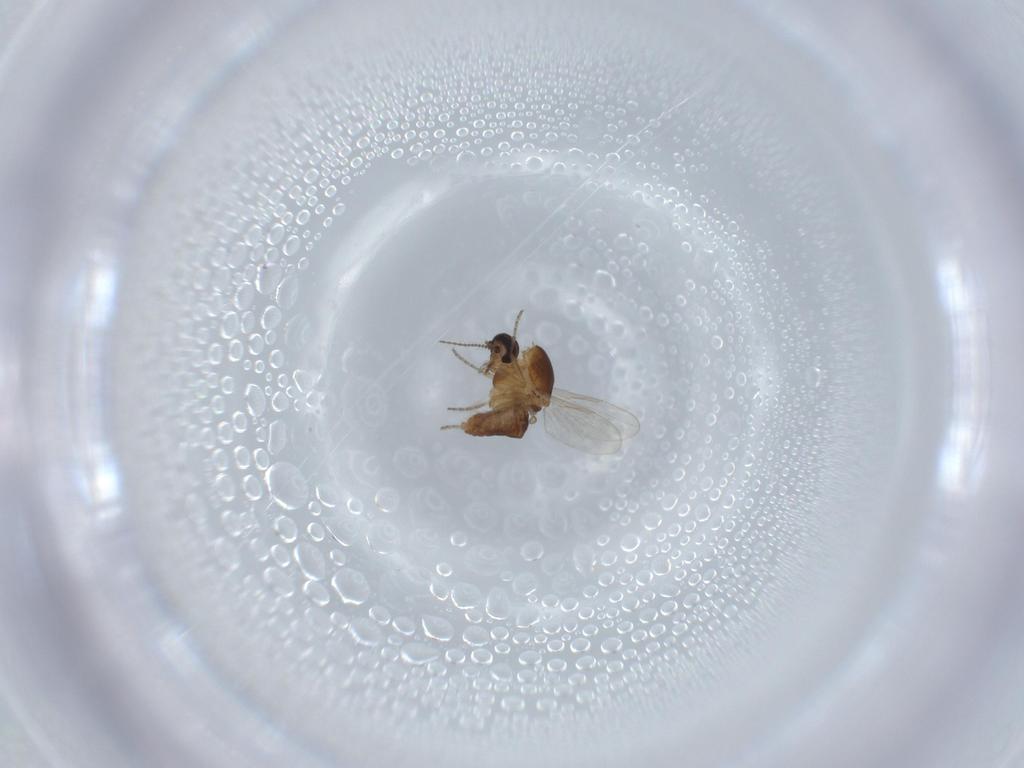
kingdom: Animalia
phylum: Arthropoda
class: Insecta
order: Diptera
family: Ceratopogonidae
